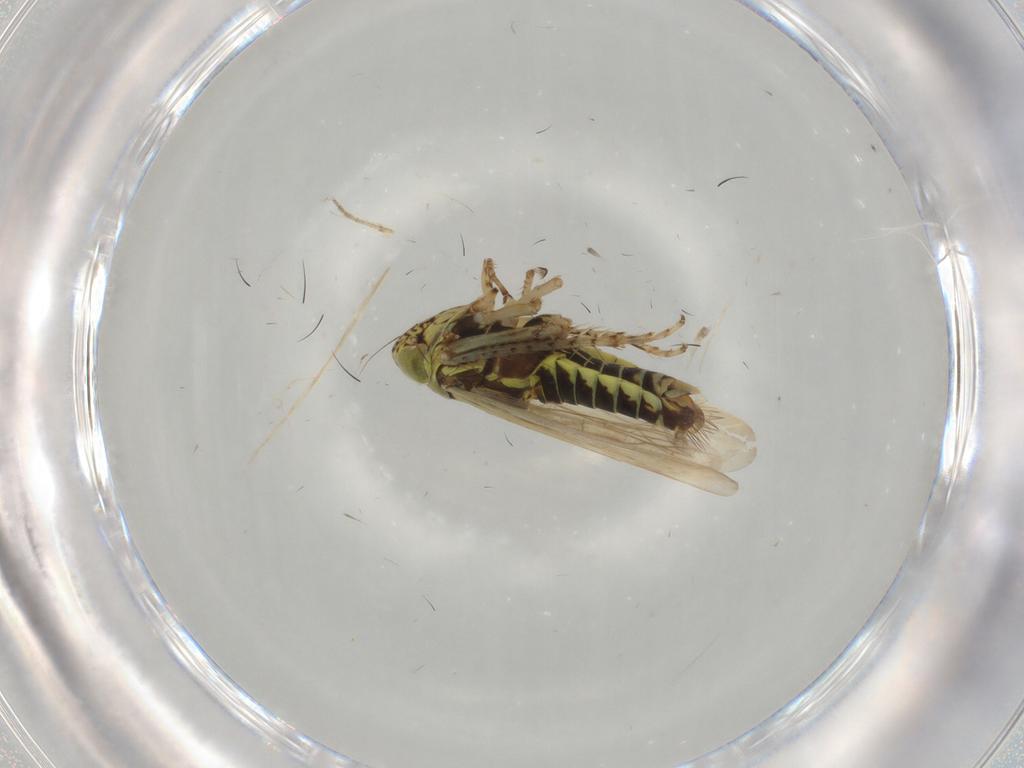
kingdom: Animalia
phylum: Arthropoda
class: Insecta
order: Hemiptera
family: Cicadellidae
